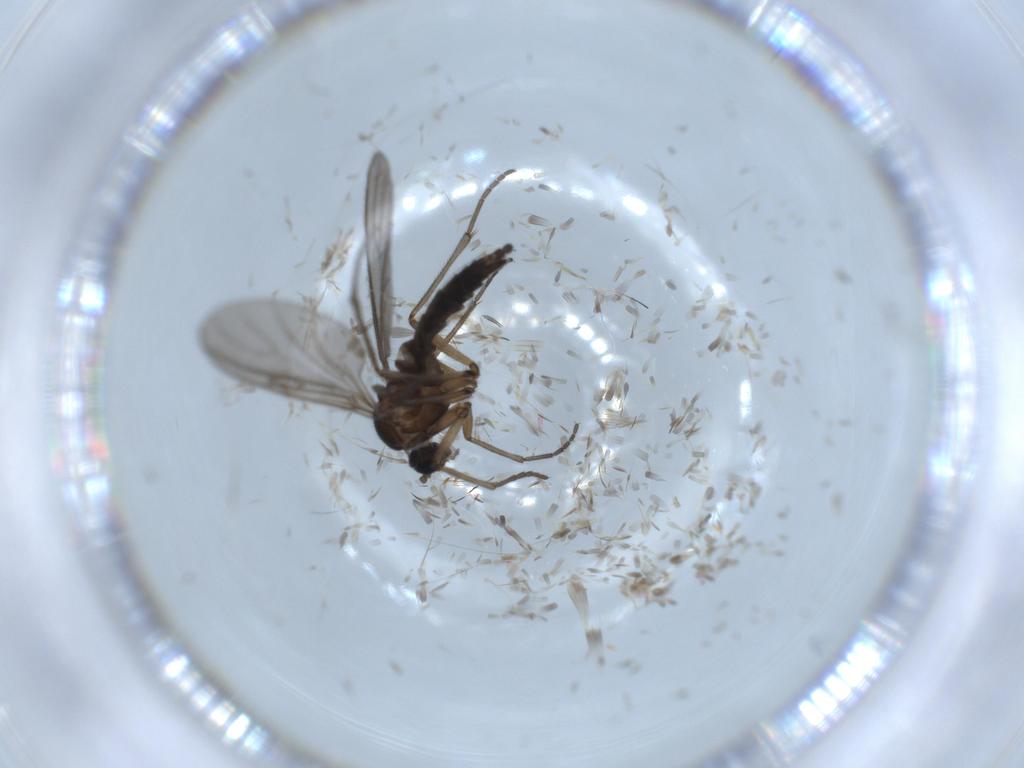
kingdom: Animalia
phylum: Arthropoda
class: Insecta
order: Diptera
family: Sciaridae
